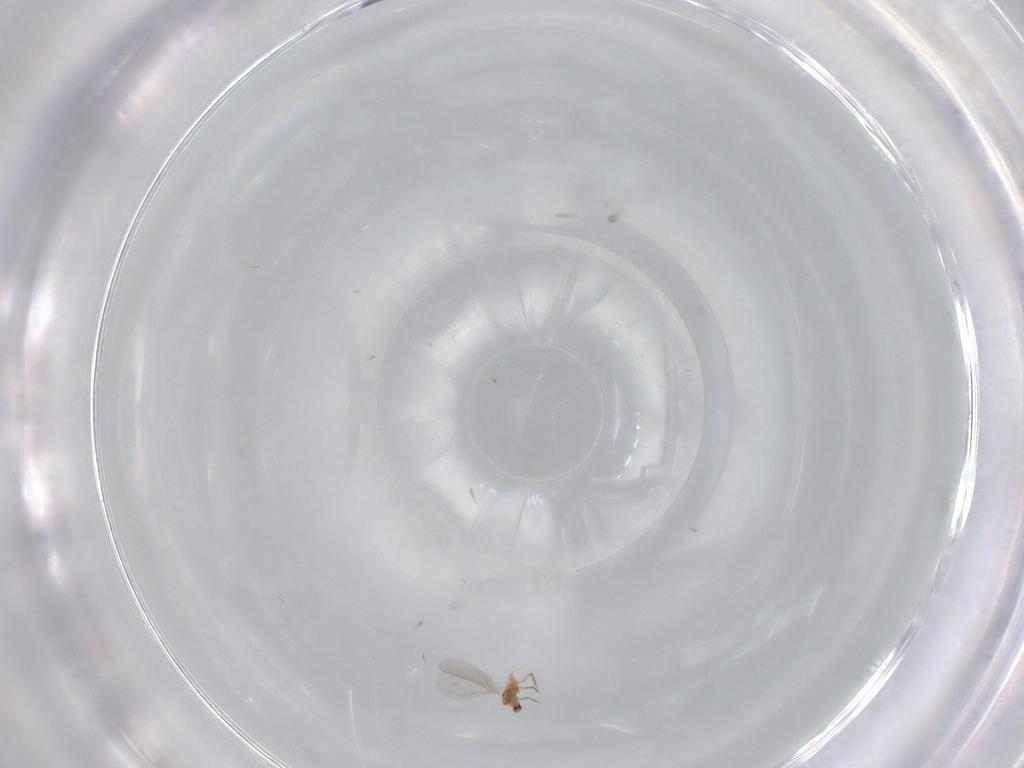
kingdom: Animalia
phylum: Arthropoda
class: Insecta
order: Hemiptera
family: Diaspididae
